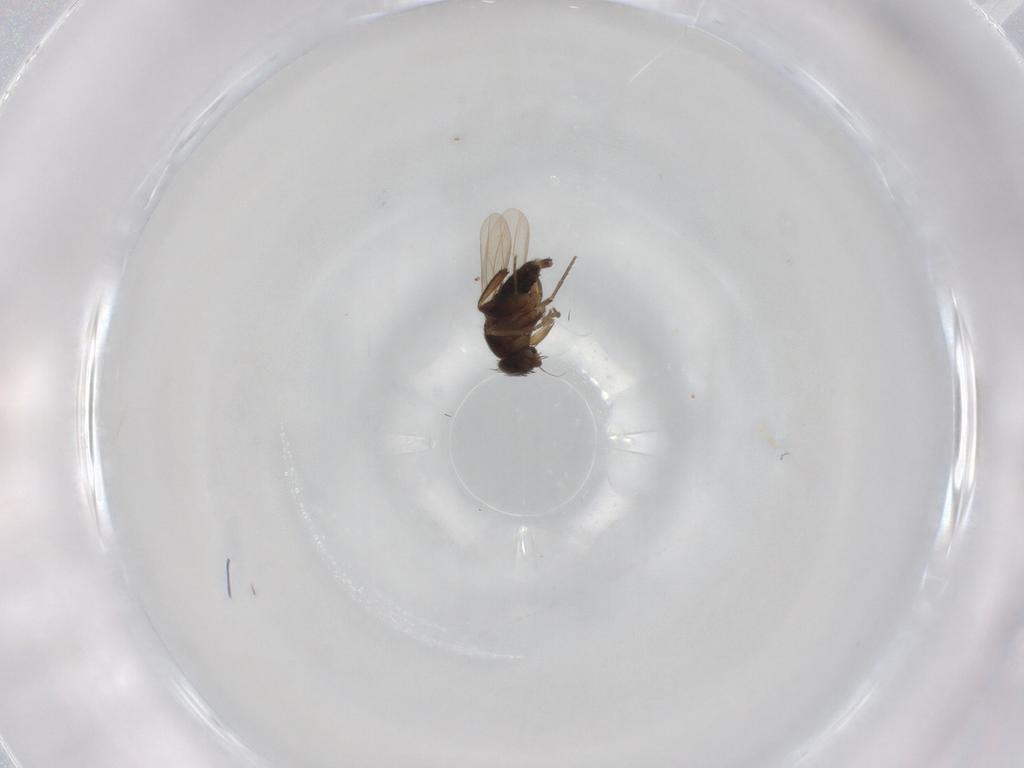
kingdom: Animalia
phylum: Arthropoda
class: Insecta
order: Diptera
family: Phoridae
